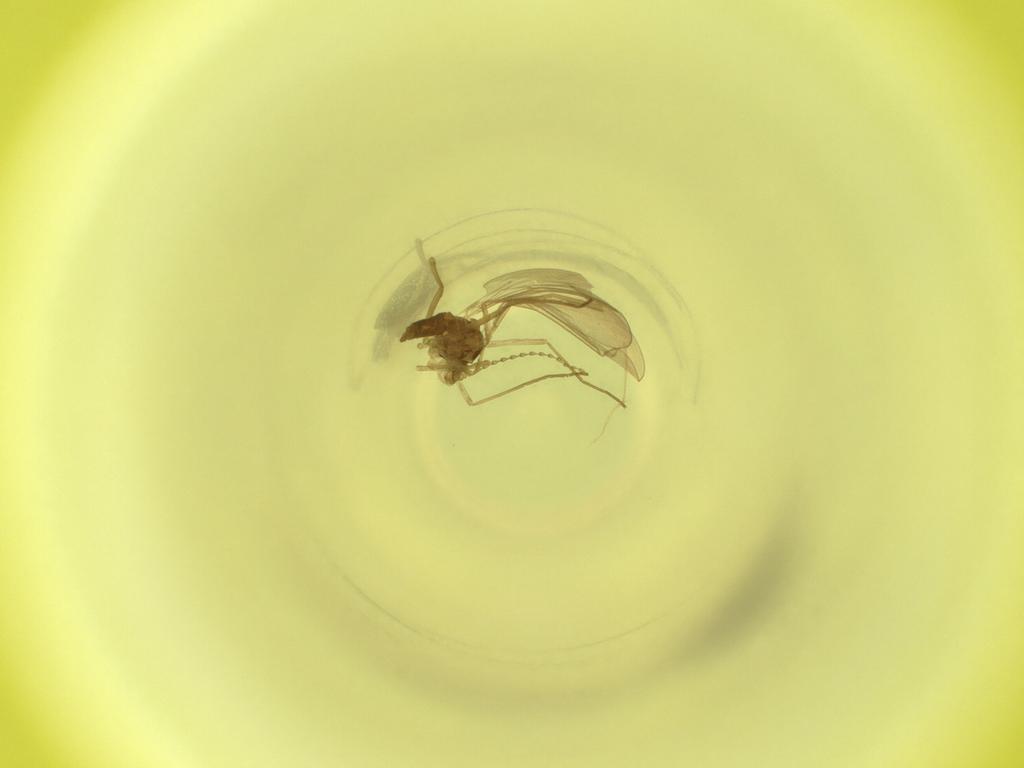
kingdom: Animalia
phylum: Arthropoda
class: Insecta
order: Diptera
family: Cecidomyiidae
